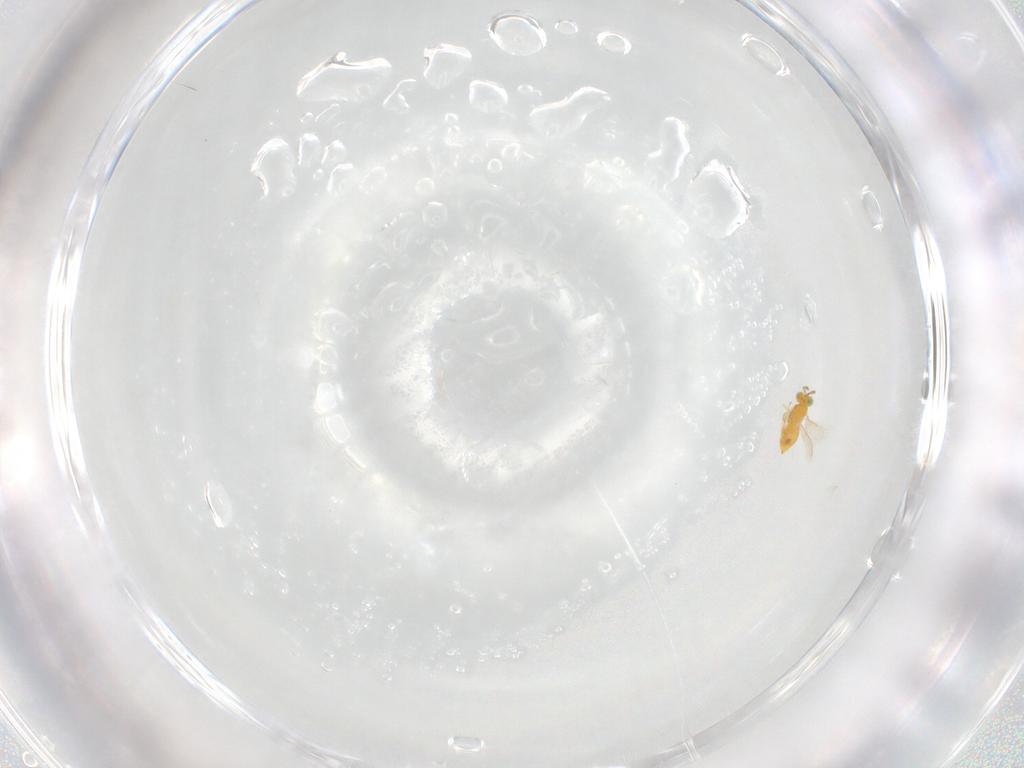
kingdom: Animalia
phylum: Arthropoda
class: Insecta
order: Hymenoptera
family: Aphelinidae
